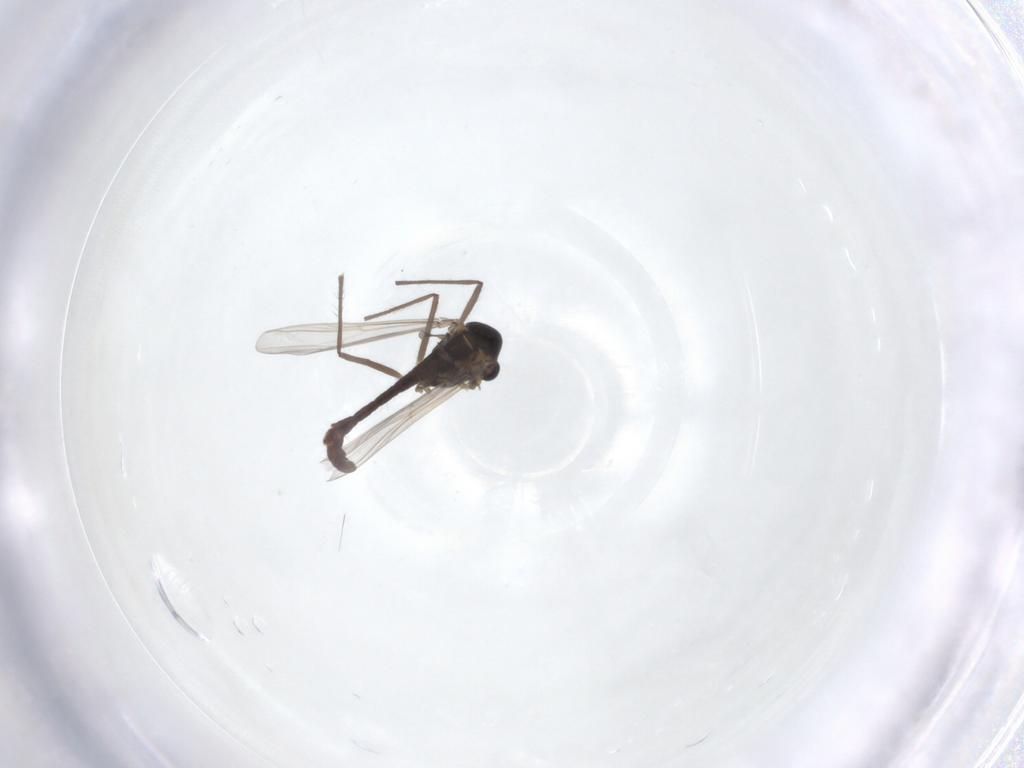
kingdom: Animalia
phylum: Arthropoda
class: Insecta
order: Diptera
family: Chironomidae
